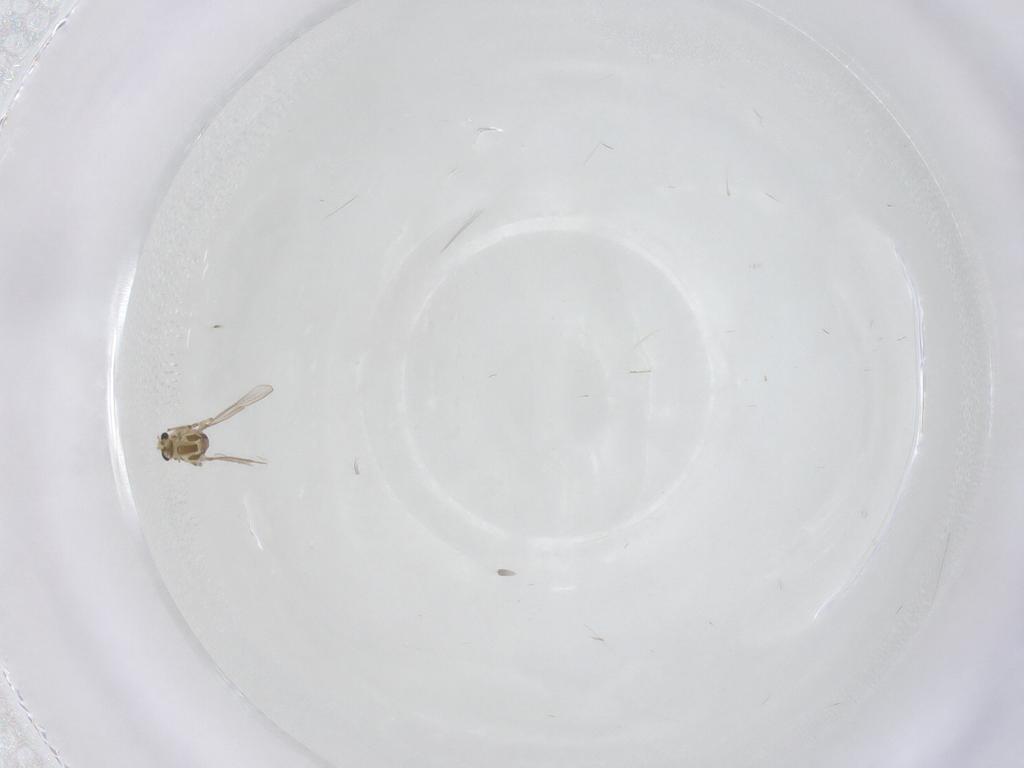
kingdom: Animalia
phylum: Arthropoda
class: Insecta
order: Diptera
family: Chironomidae
